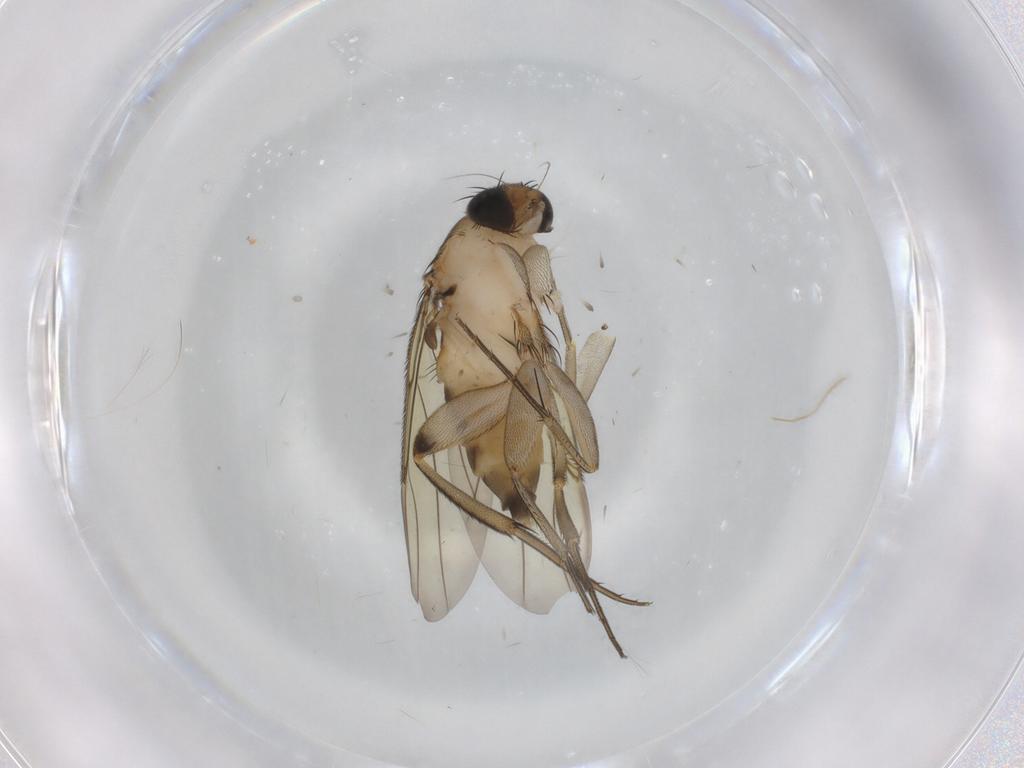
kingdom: Animalia
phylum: Arthropoda
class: Insecta
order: Diptera
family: Phoridae
